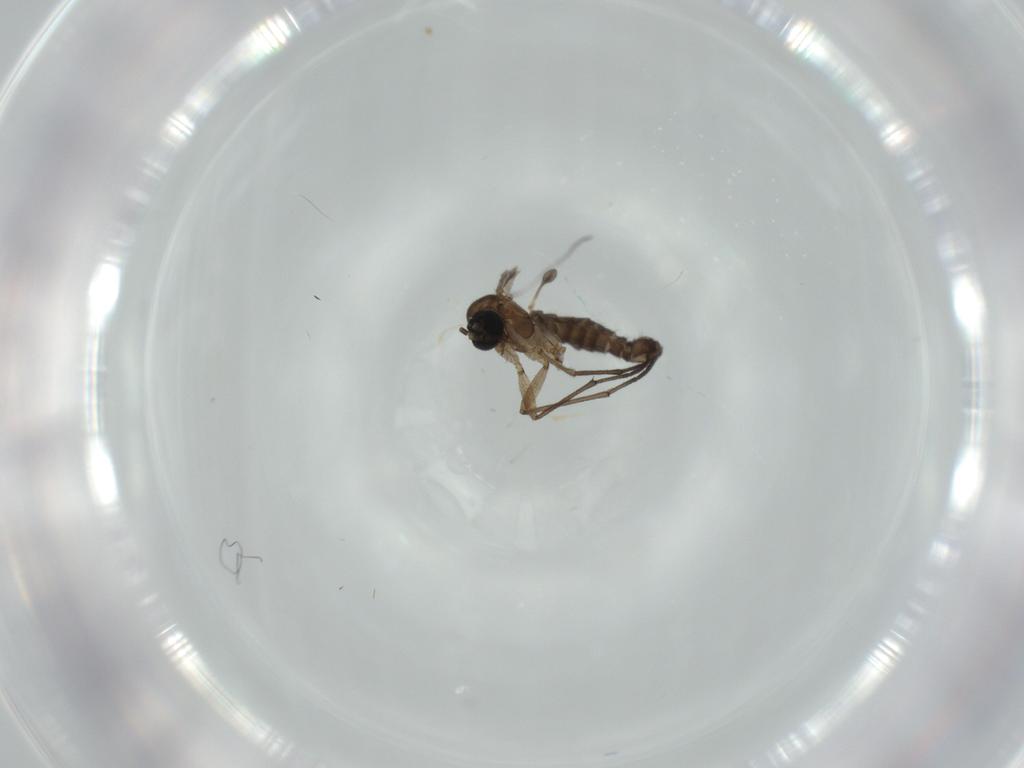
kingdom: Animalia
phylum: Arthropoda
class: Insecta
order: Diptera
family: Sciaridae
